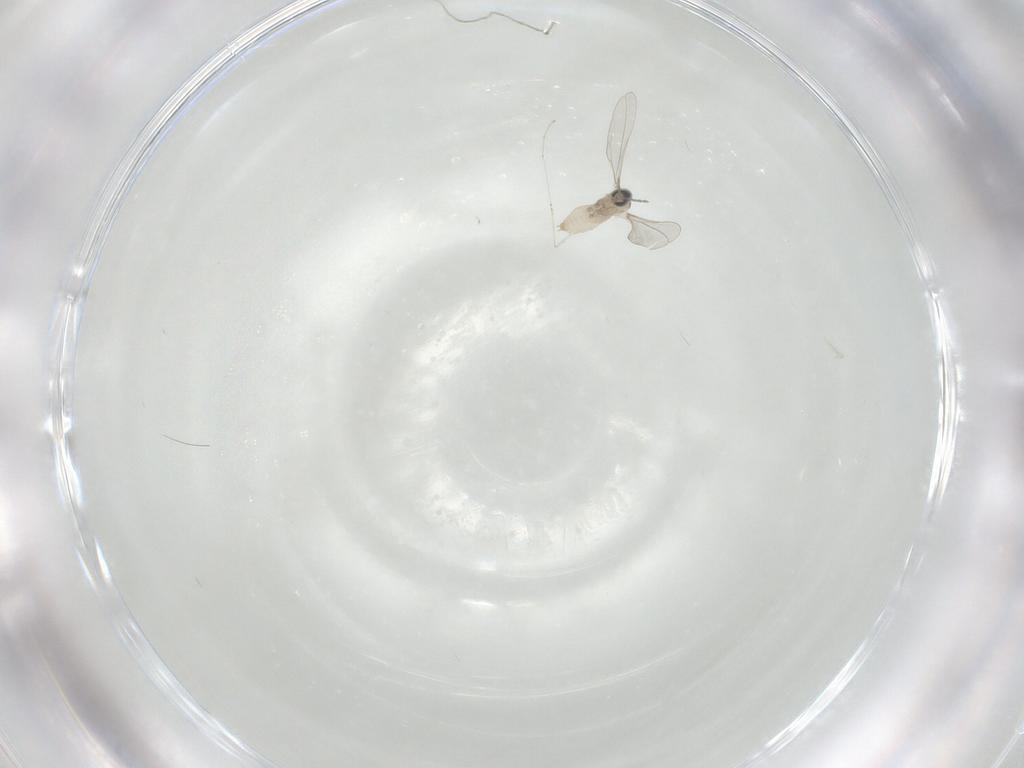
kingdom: Animalia
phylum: Arthropoda
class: Insecta
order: Diptera
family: Cecidomyiidae
